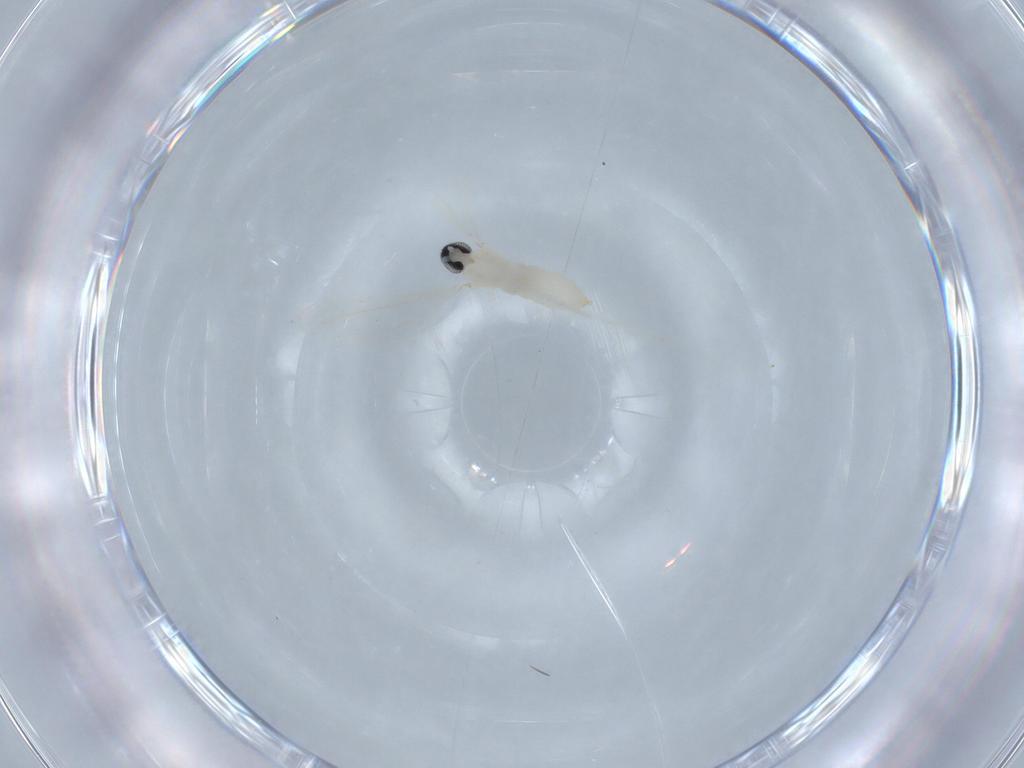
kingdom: Animalia
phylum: Arthropoda
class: Insecta
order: Diptera
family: Cecidomyiidae
